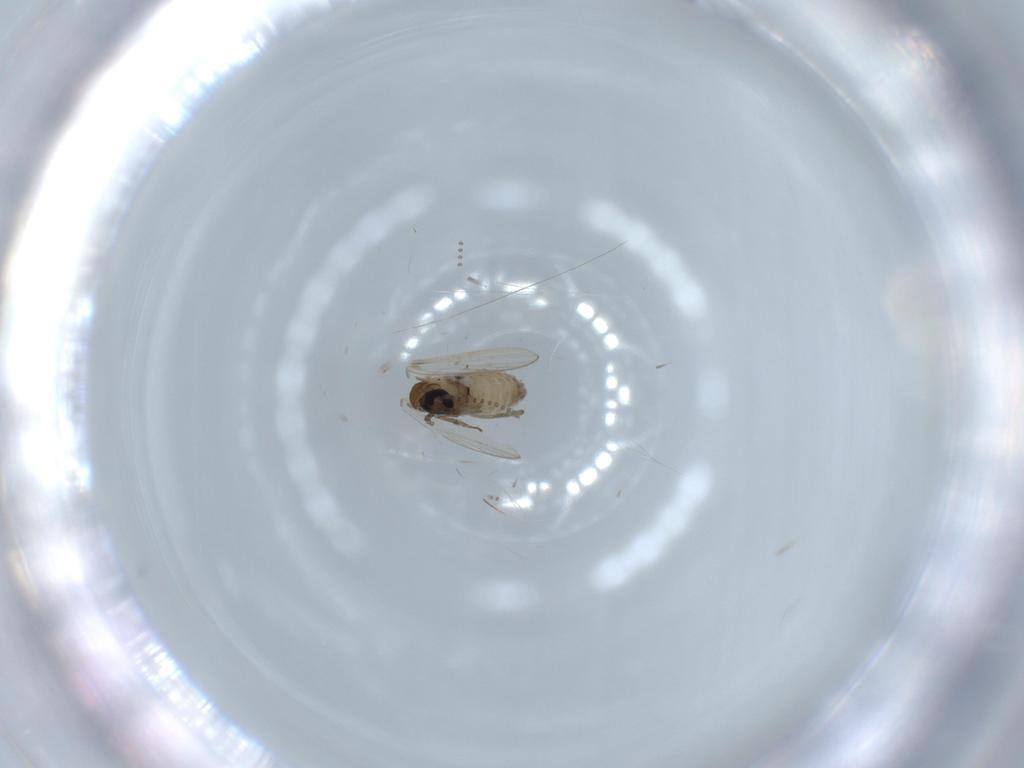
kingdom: Animalia
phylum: Arthropoda
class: Insecta
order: Diptera
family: Psychodidae
